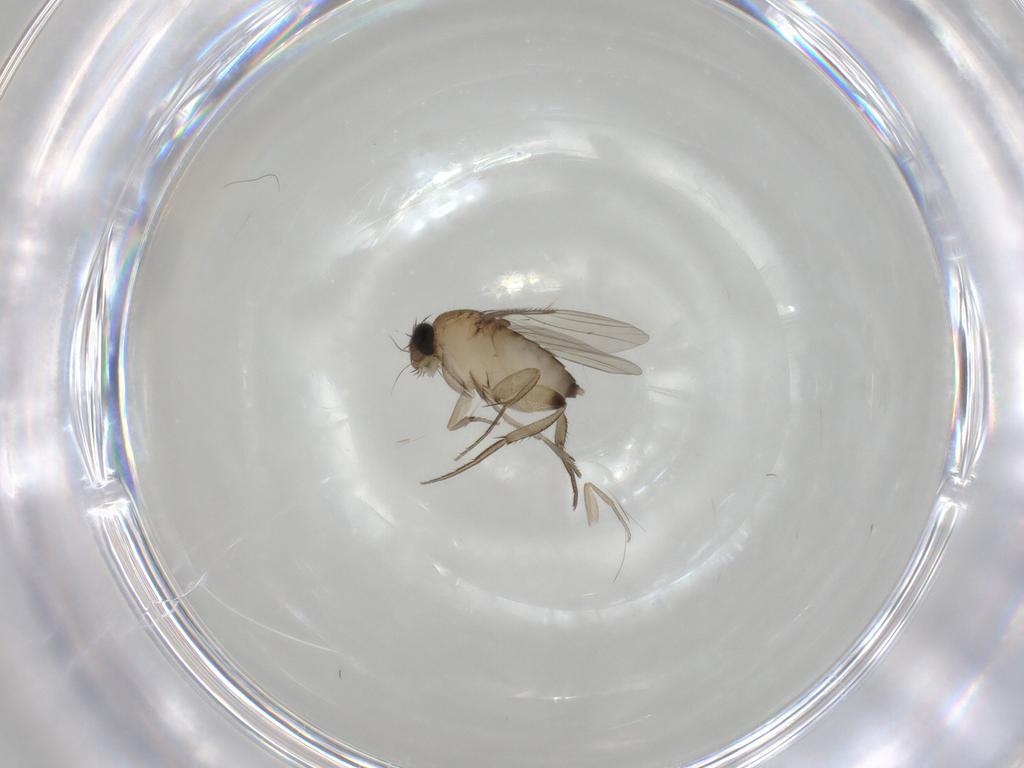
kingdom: Animalia
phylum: Arthropoda
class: Insecta
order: Diptera
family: Phoridae
